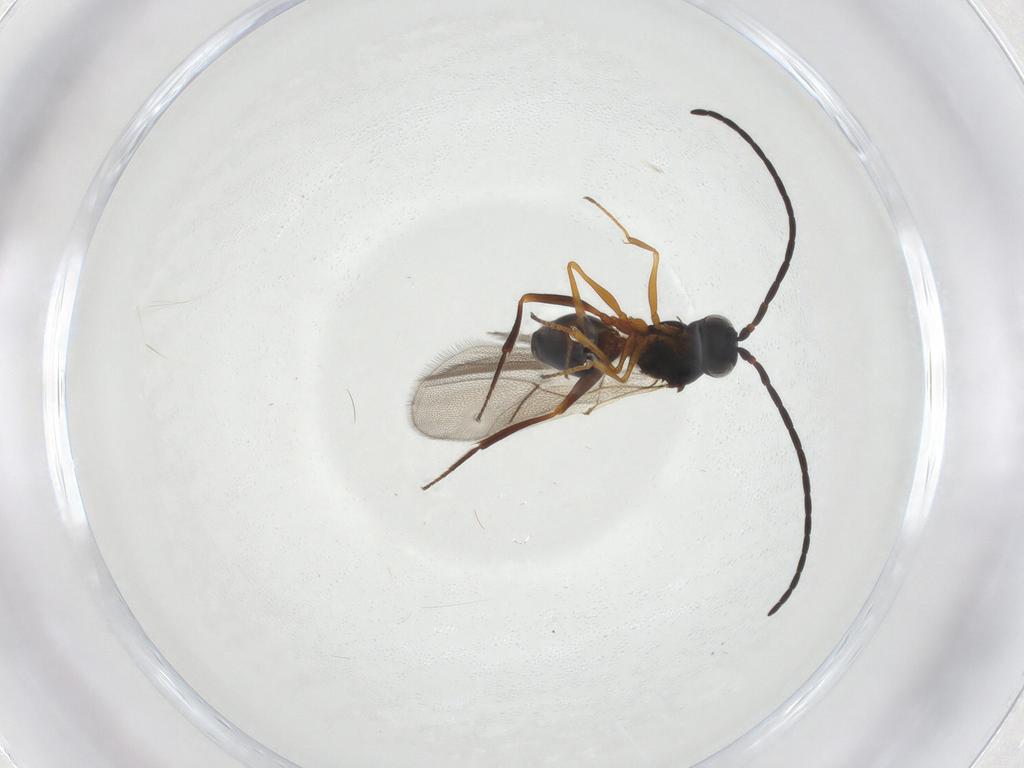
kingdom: Animalia
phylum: Arthropoda
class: Insecta
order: Hymenoptera
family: Figitidae
